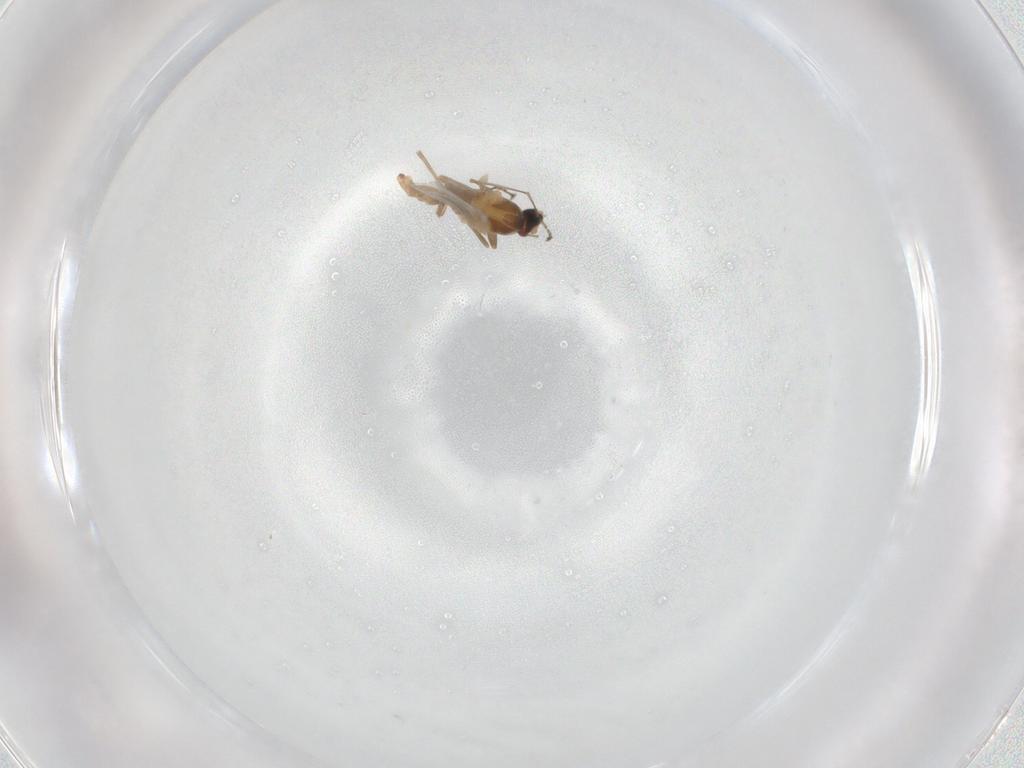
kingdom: Animalia
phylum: Arthropoda
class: Insecta
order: Diptera
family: Cecidomyiidae
